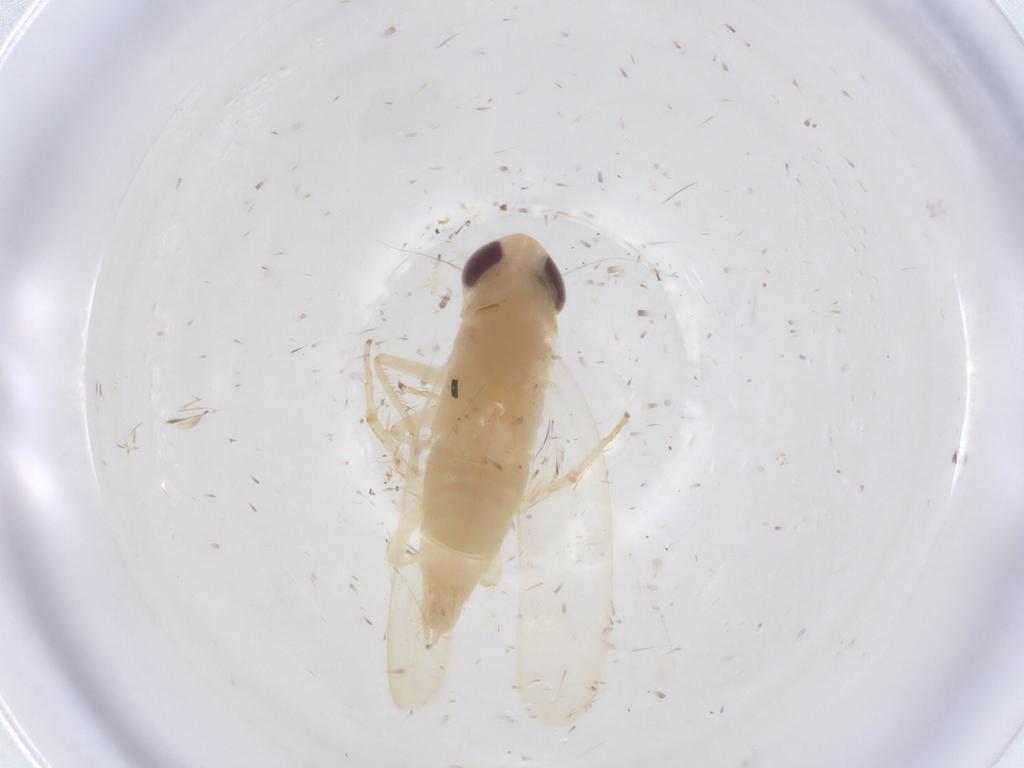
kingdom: Animalia
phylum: Arthropoda
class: Insecta
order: Hemiptera
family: Cicadellidae
